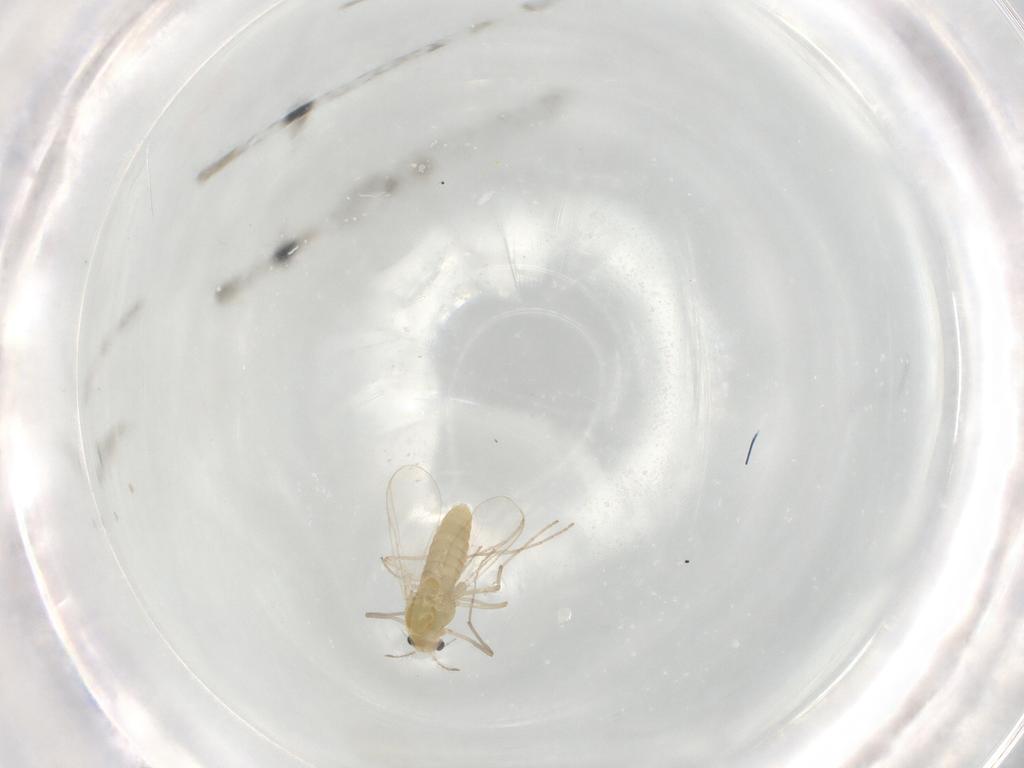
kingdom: Animalia
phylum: Arthropoda
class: Insecta
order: Diptera
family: Chironomidae
